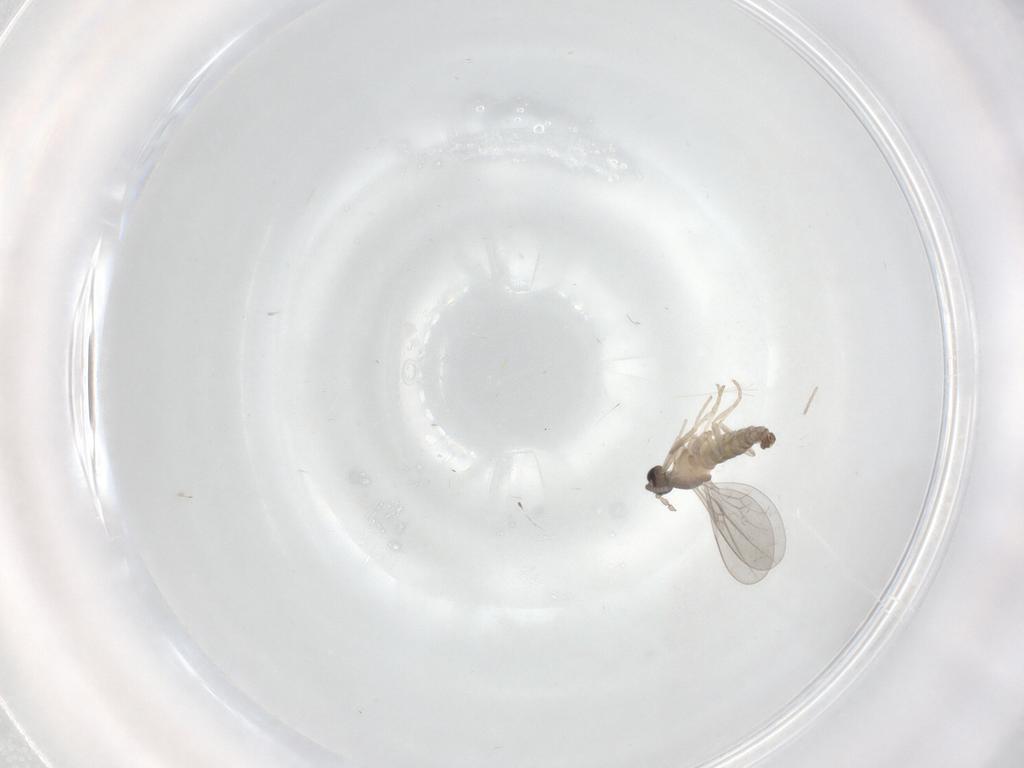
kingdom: Animalia
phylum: Arthropoda
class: Insecta
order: Diptera
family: Cecidomyiidae
